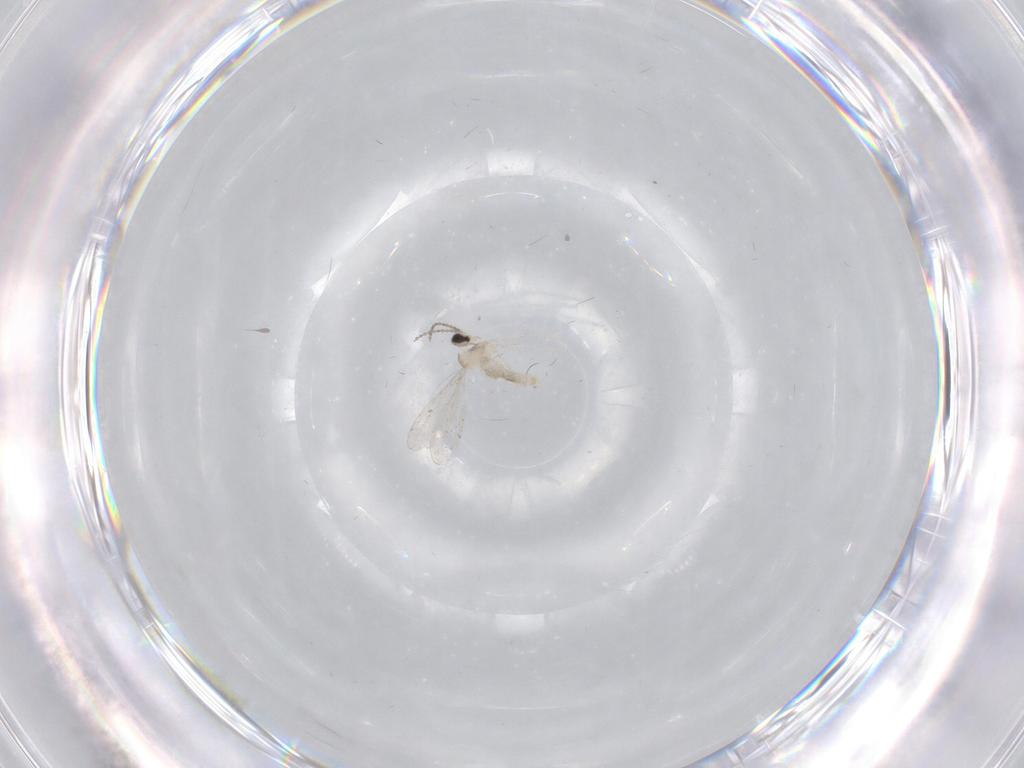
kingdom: Animalia
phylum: Arthropoda
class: Insecta
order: Diptera
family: Cecidomyiidae
